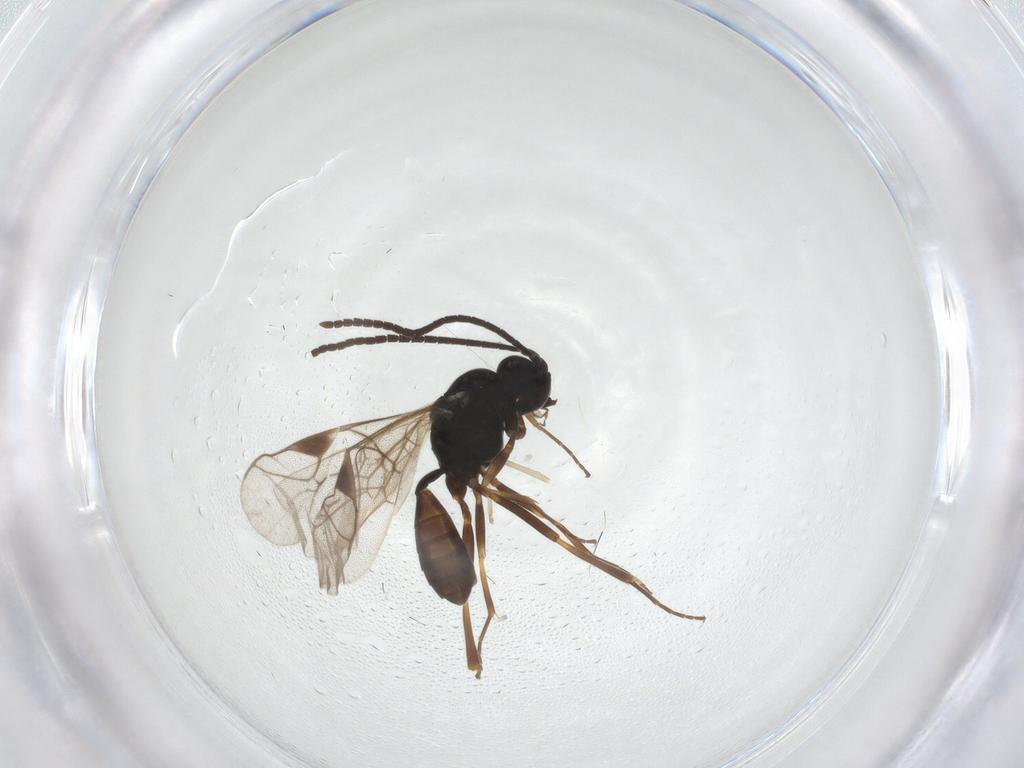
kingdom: Animalia
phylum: Arthropoda
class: Insecta
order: Hymenoptera
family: Ichneumonidae
